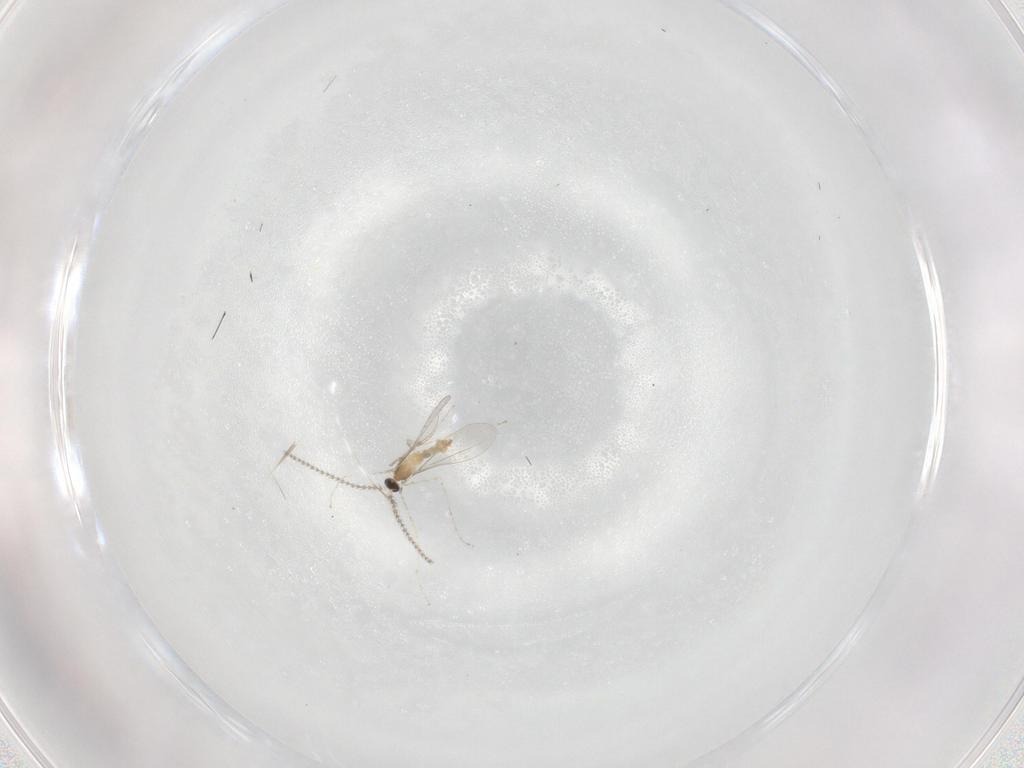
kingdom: Animalia
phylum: Arthropoda
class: Insecta
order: Diptera
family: Cecidomyiidae
